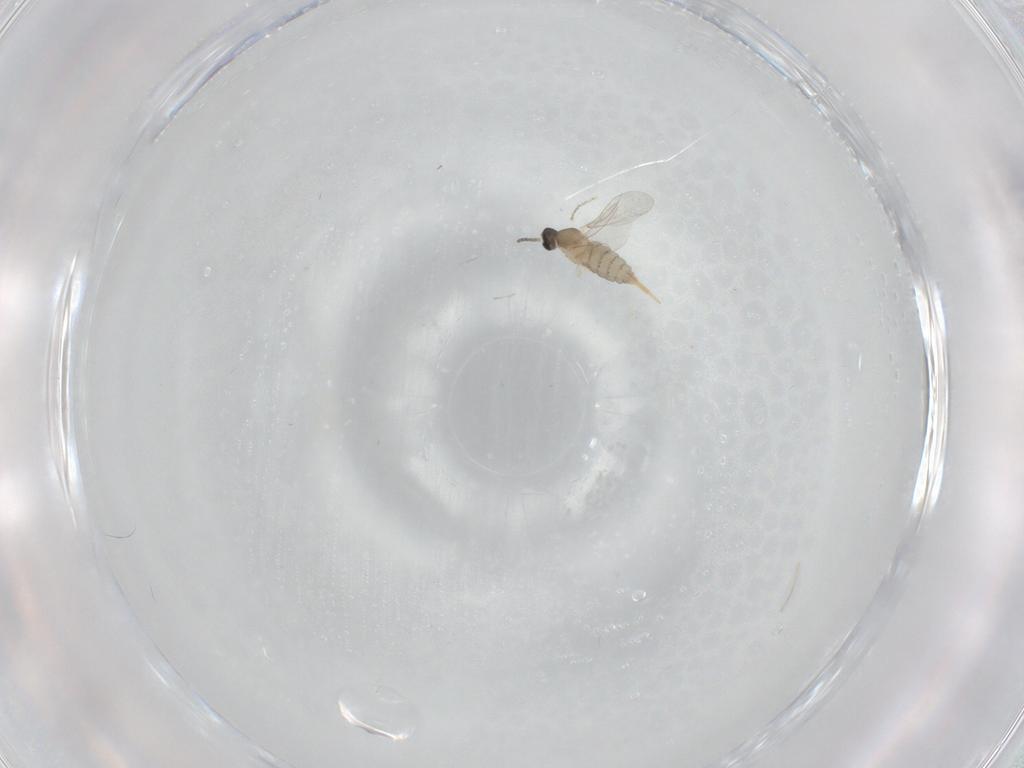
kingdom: Animalia
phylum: Arthropoda
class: Insecta
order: Diptera
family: Cecidomyiidae
